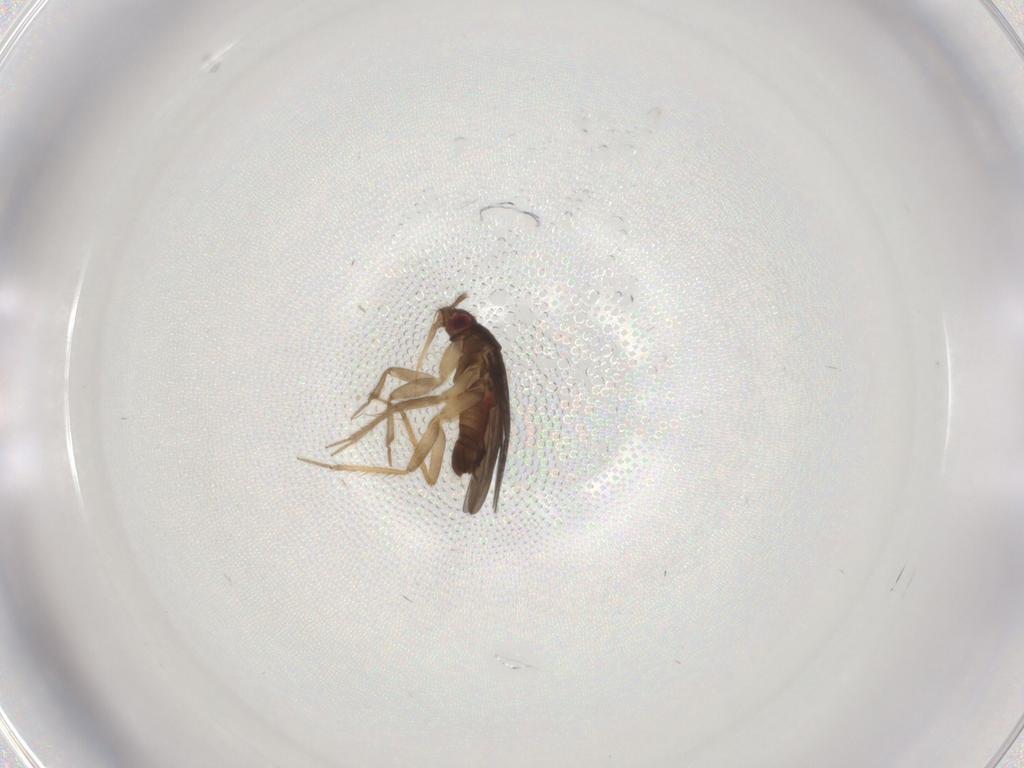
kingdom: Animalia
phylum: Arthropoda
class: Insecta
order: Hemiptera
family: Ceratocombidae
